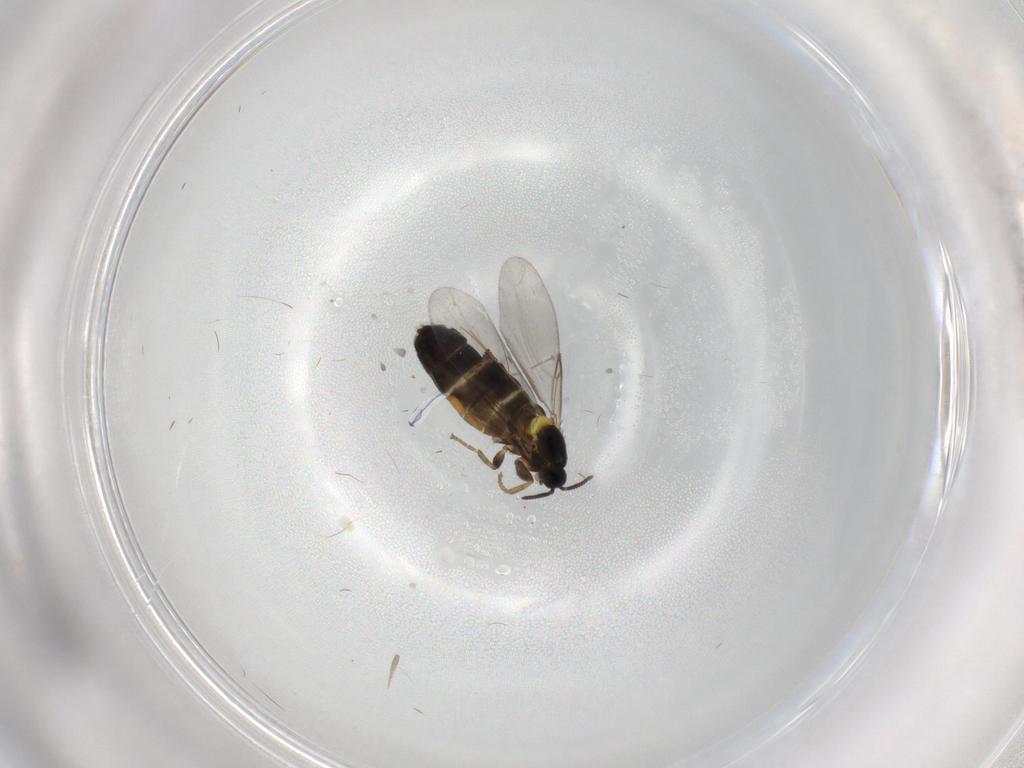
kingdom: Animalia
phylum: Arthropoda
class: Insecta
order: Diptera
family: Scatopsidae
